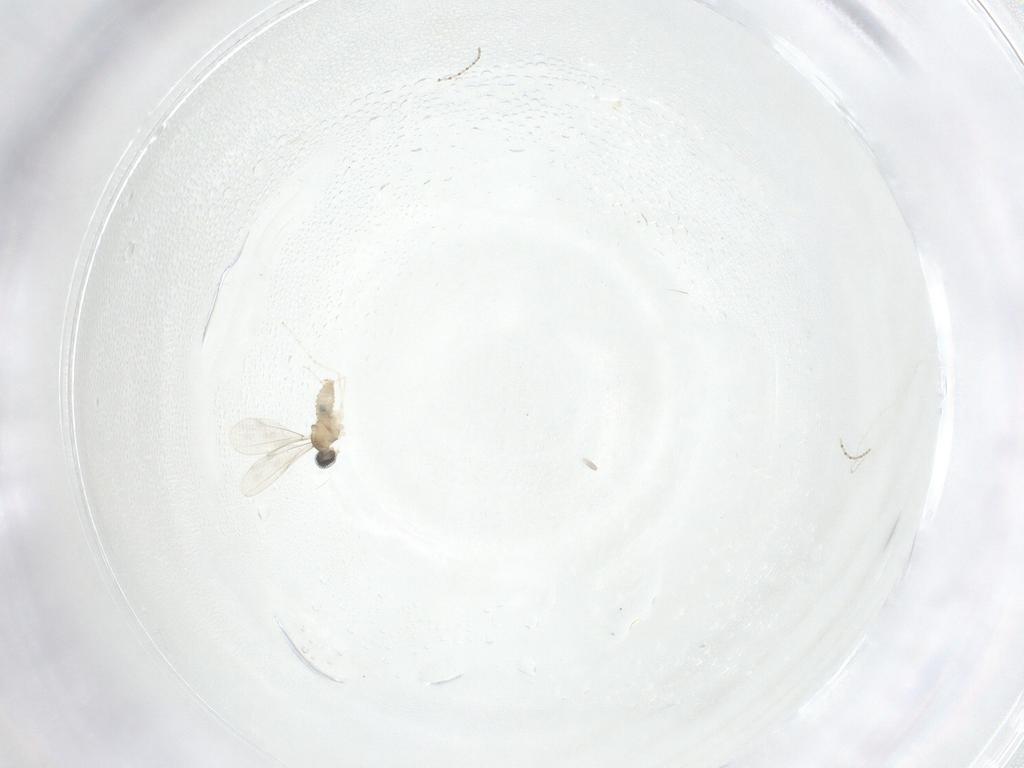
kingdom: Animalia
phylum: Arthropoda
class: Insecta
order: Diptera
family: Cecidomyiidae
